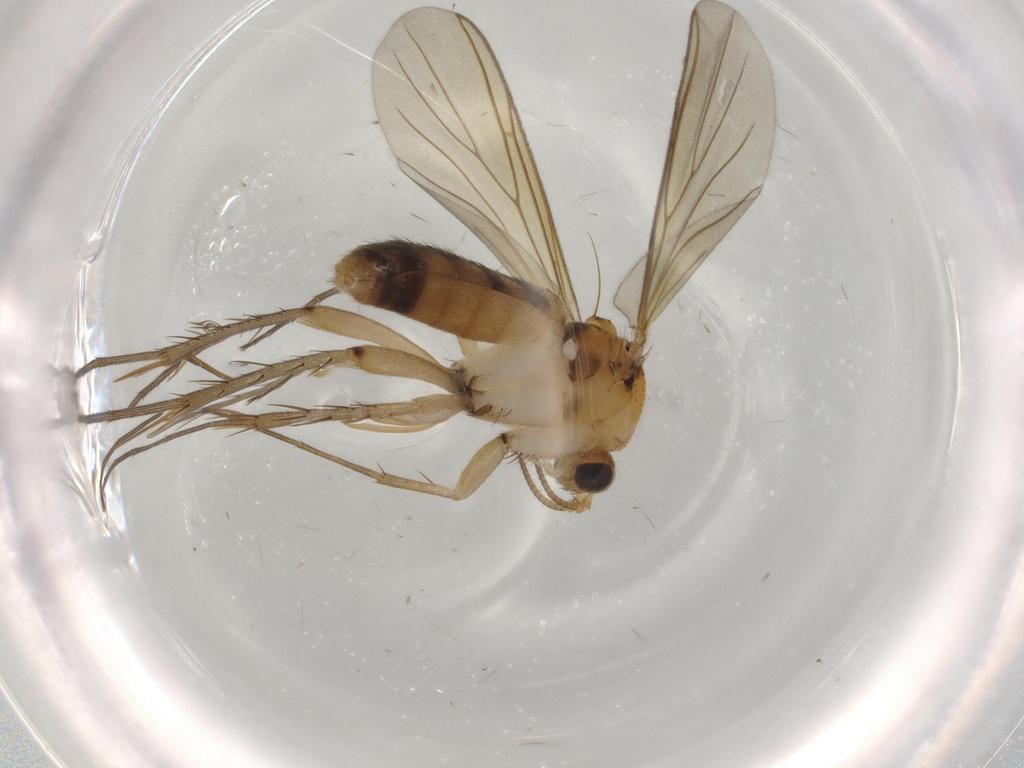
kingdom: Animalia
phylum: Arthropoda
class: Insecta
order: Diptera
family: Mycetophilidae
